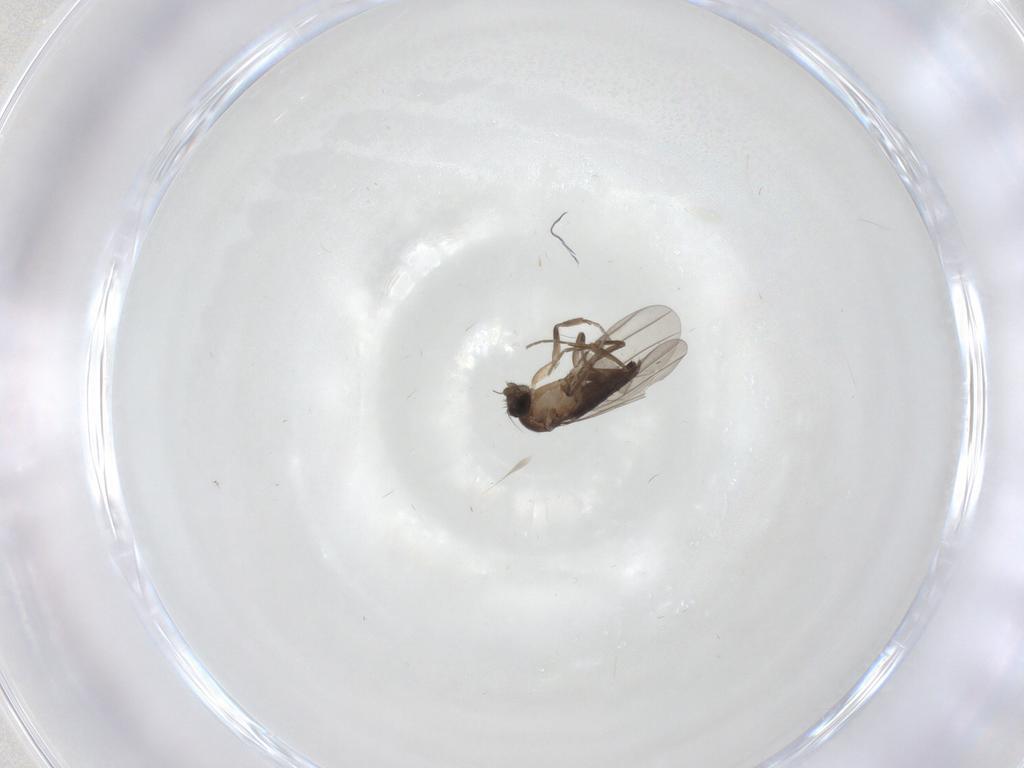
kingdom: Animalia
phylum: Arthropoda
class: Insecta
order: Diptera
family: Phoridae
